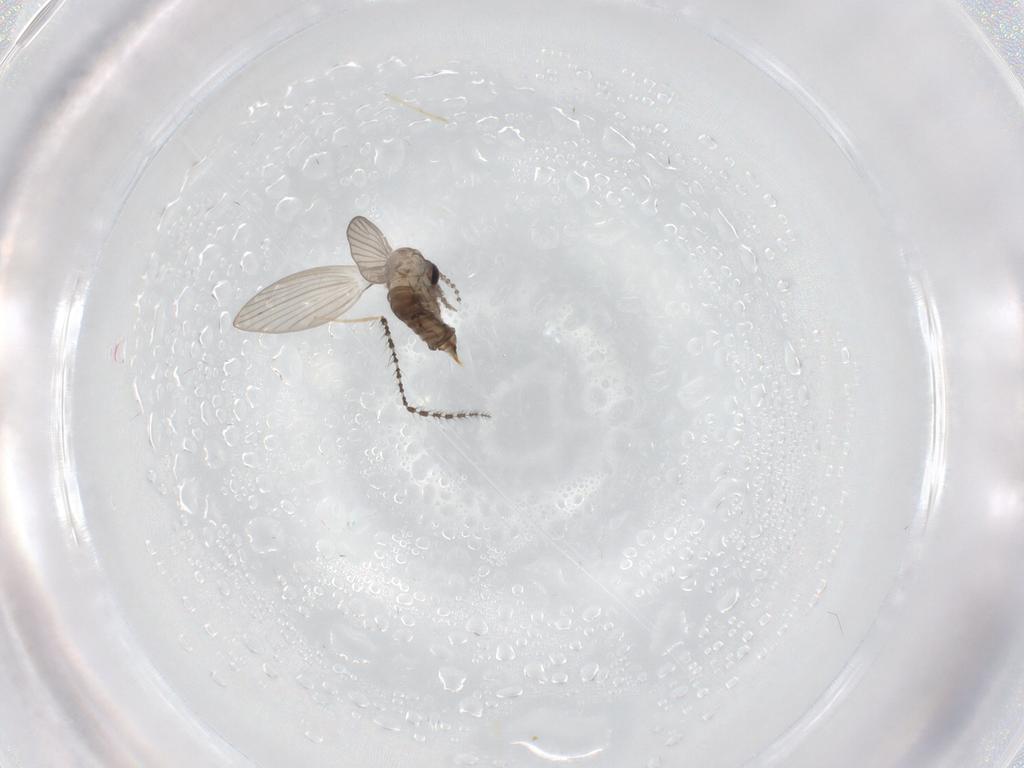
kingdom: Animalia
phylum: Arthropoda
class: Insecta
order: Diptera
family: Sciaridae
